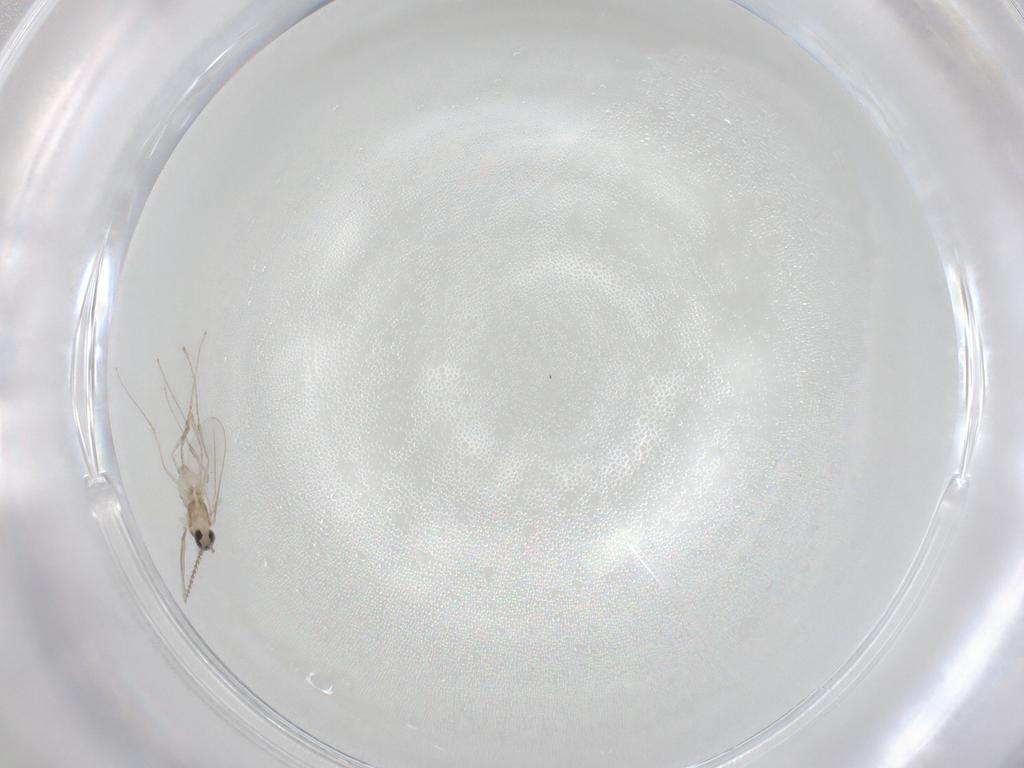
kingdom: Animalia
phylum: Arthropoda
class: Insecta
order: Diptera
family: Cecidomyiidae
